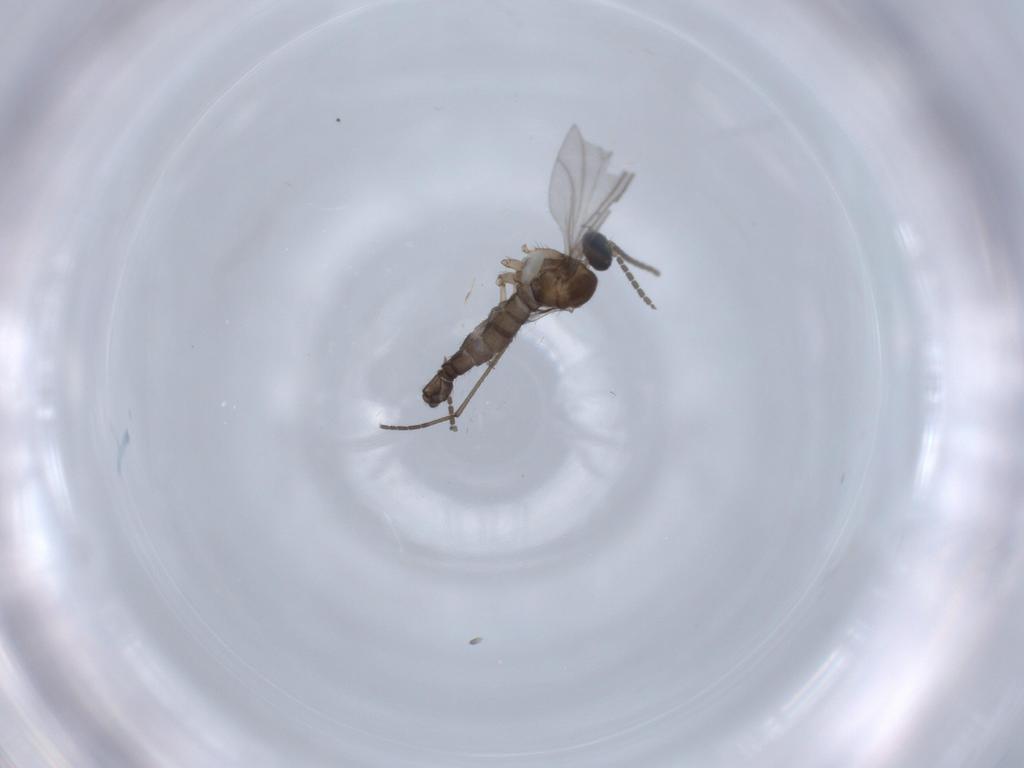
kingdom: Animalia
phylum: Arthropoda
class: Insecta
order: Diptera
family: Sciaridae
